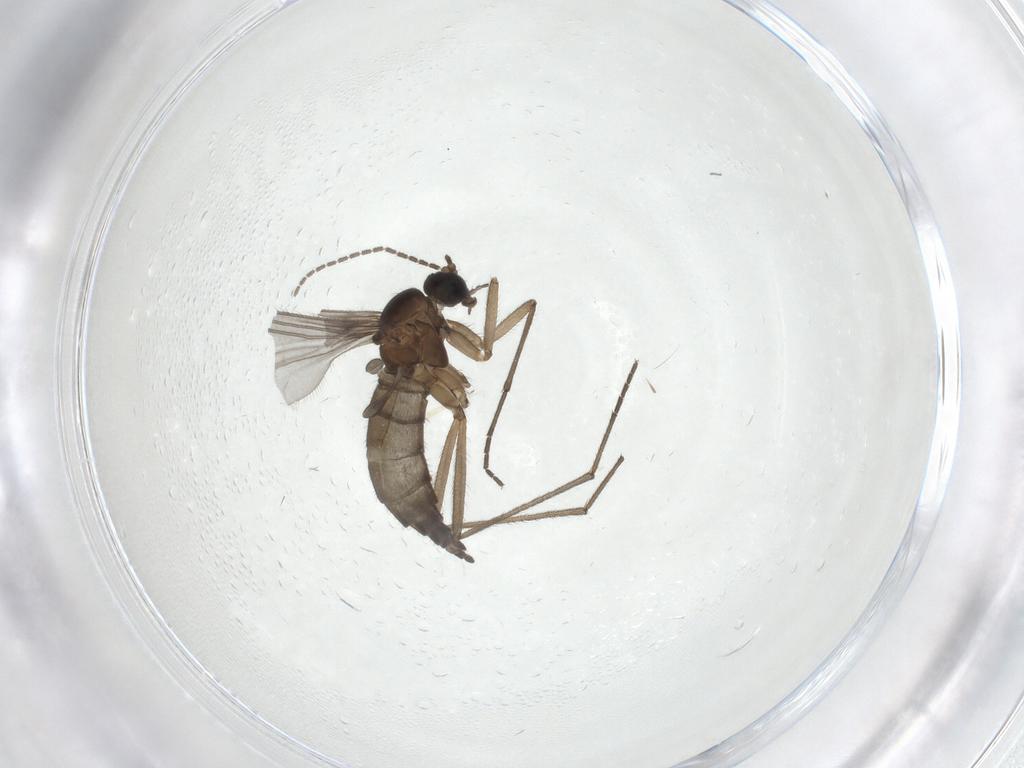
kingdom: Animalia
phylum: Arthropoda
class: Insecta
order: Diptera
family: Sciaridae
